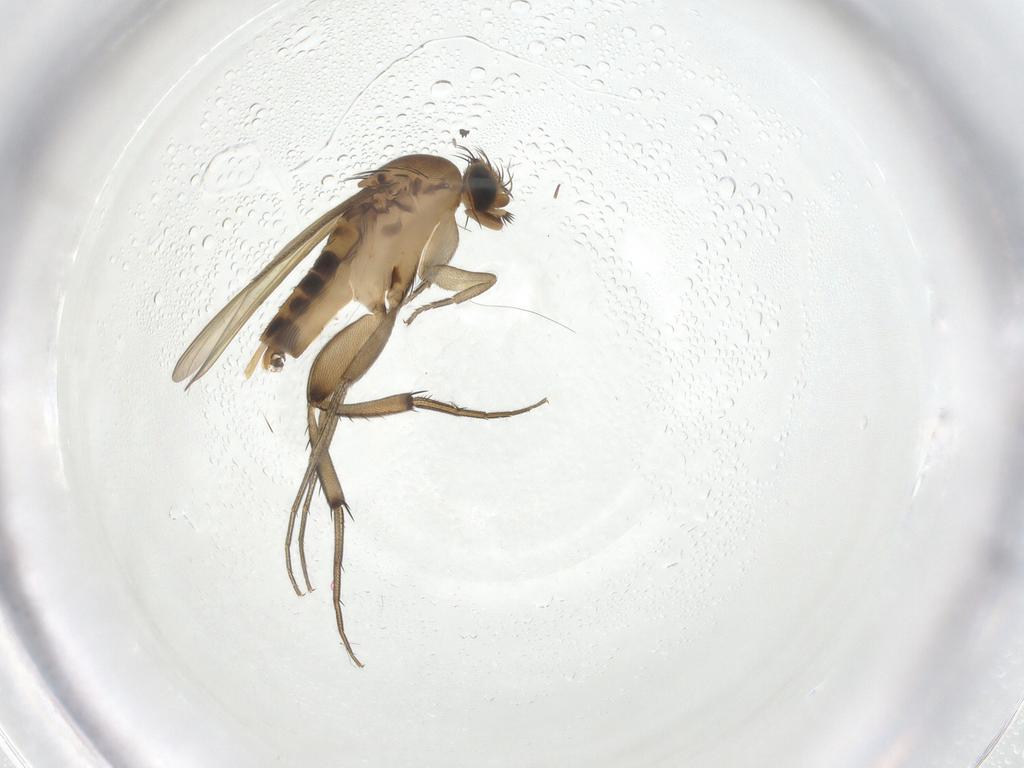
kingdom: Animalia
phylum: Arthropoda
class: Insecta
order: Diptera
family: Phoridae
